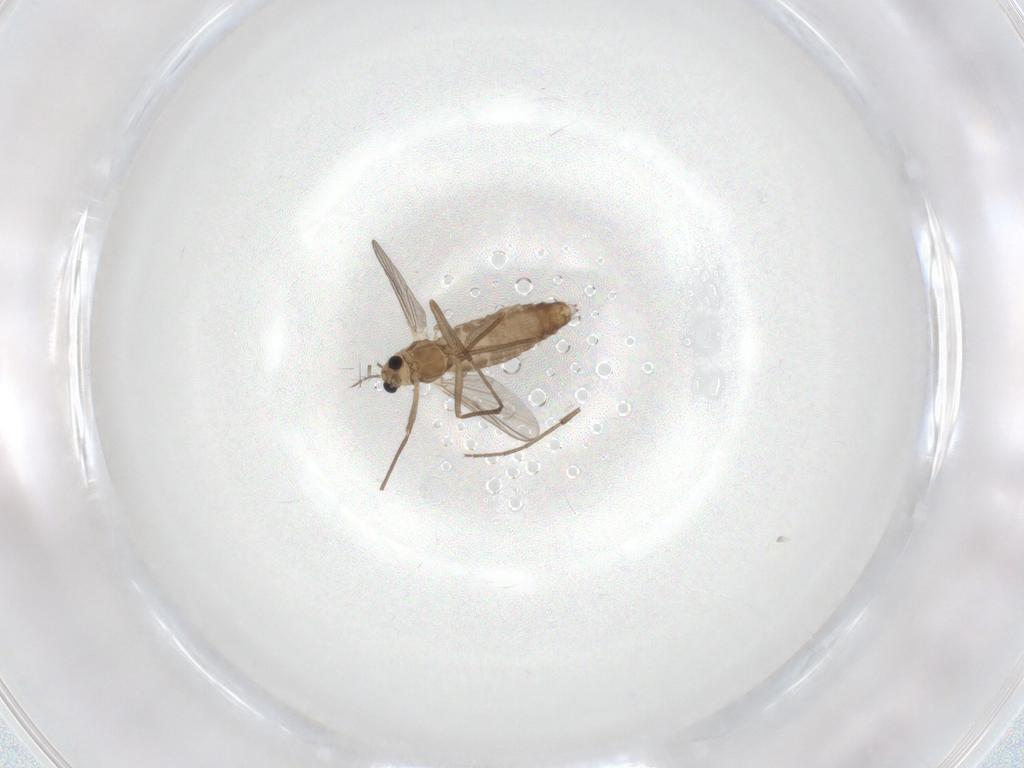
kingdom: Animalia
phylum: Arthropoda
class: Insecta
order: Diptera
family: Chironomidae
